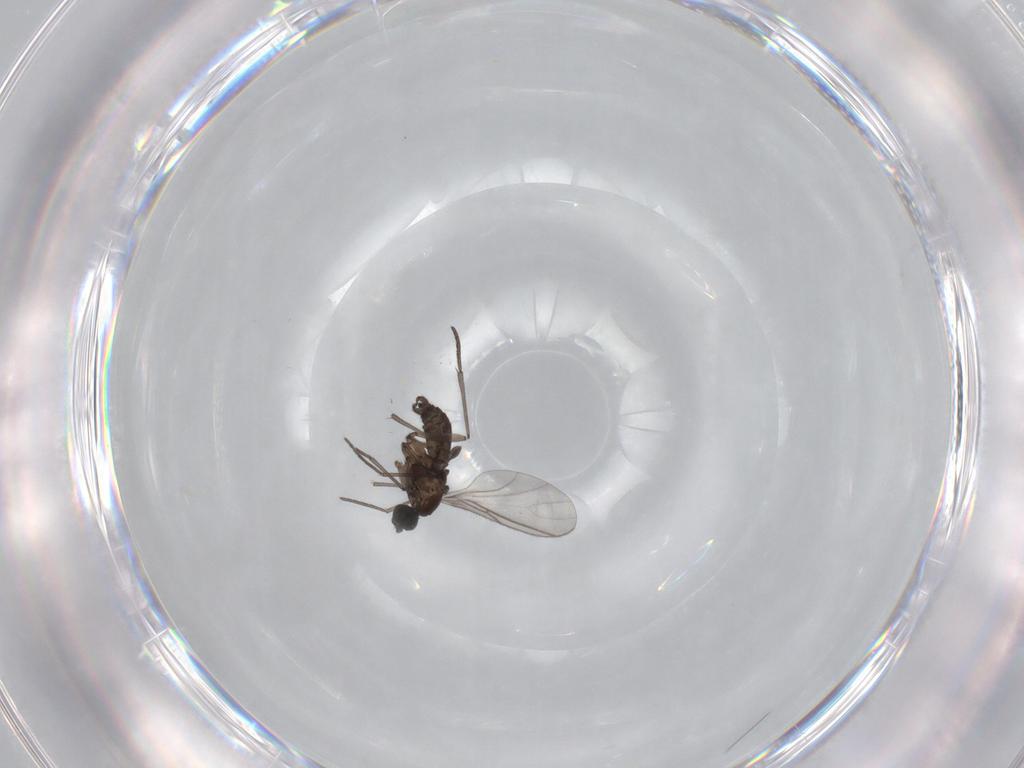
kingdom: Animalia
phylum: Arthropoda
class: Insecta
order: Diptera
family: Sciaridae
